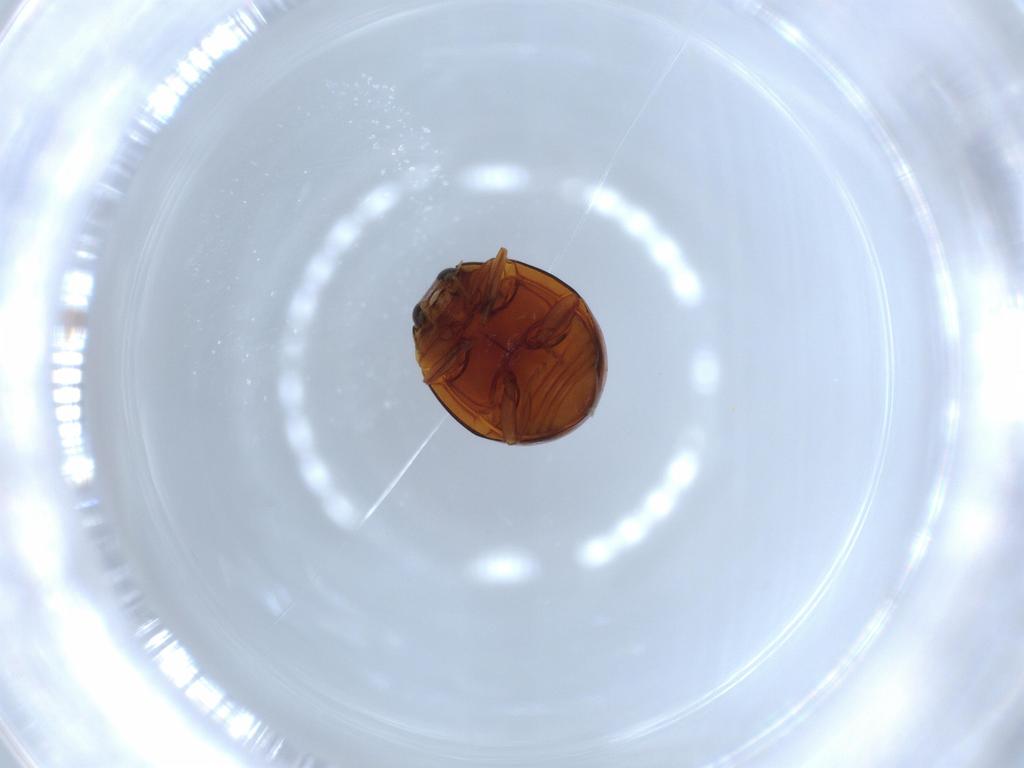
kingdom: Animalia
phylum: Arthropoda
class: Insecta
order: Coleoptera
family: Coccinellidae
